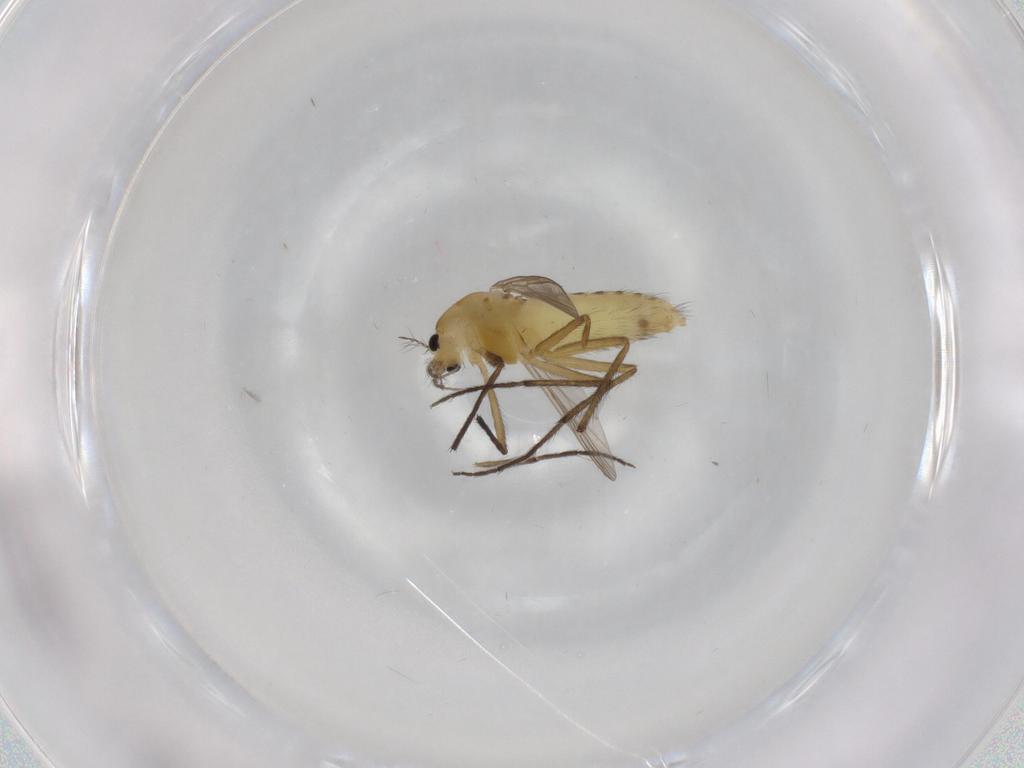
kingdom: Animalia
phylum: Arthropoda
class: Insecta
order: Diptera
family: Chironomidae
